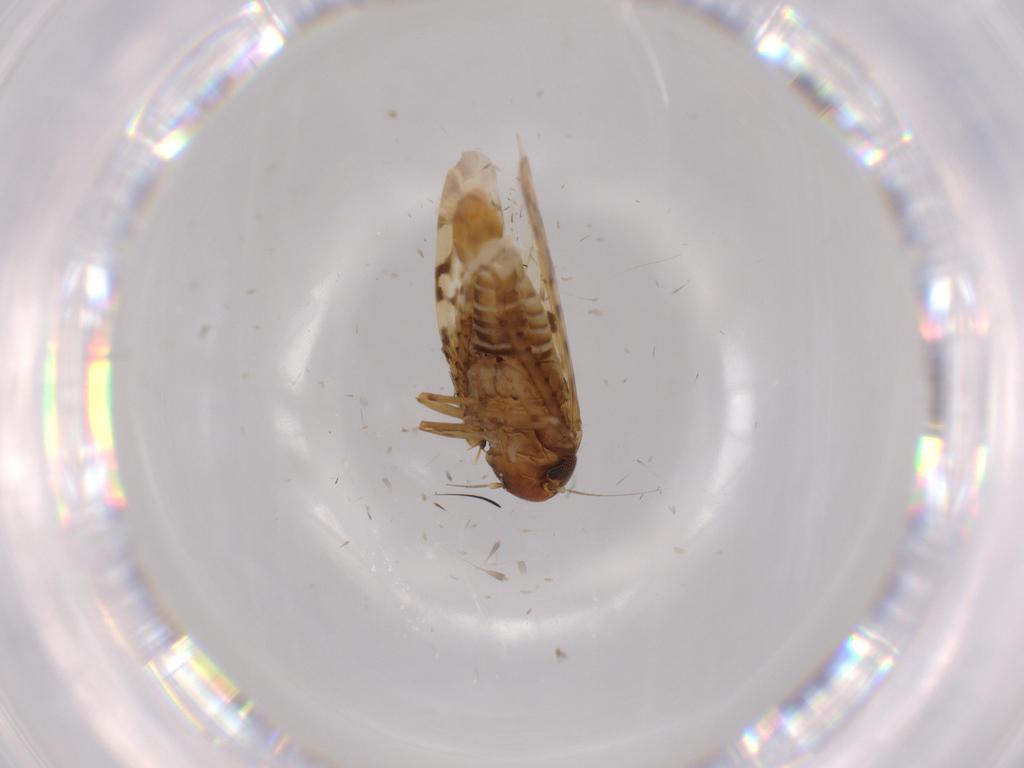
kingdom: Animalia
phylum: Arthropoda
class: Insecta
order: Hemiptera
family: Cicadellidae
